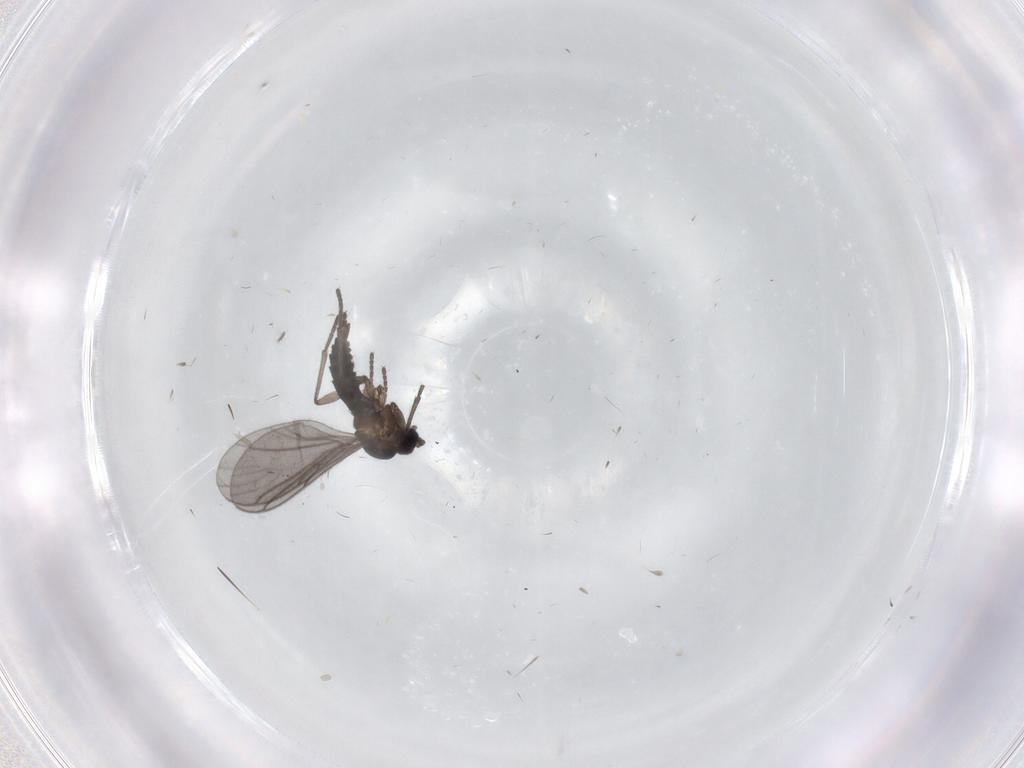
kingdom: Animalia
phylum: Arthropoda
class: Insecta
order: Diptera
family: Sciaridae
